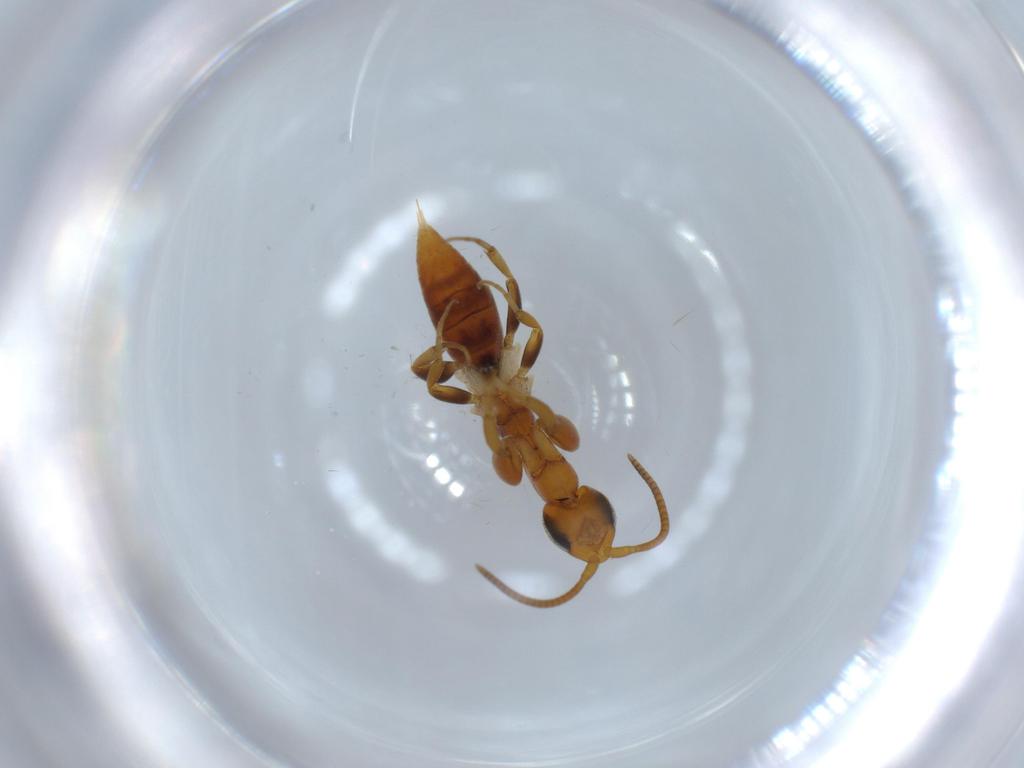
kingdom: Animalia
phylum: Arthropoda
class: Insecta
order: Hymenoptera
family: Sclerogibbidae
